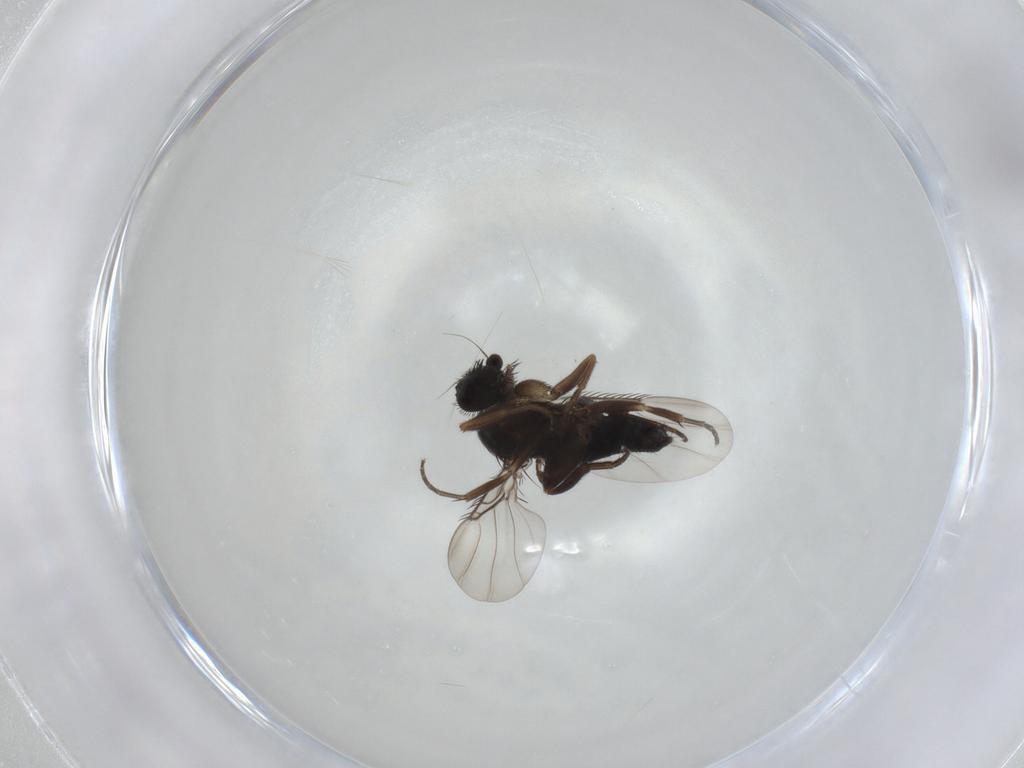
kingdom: Animalia
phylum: Arthropoda
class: Insecta
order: Diptera
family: Phoridae
